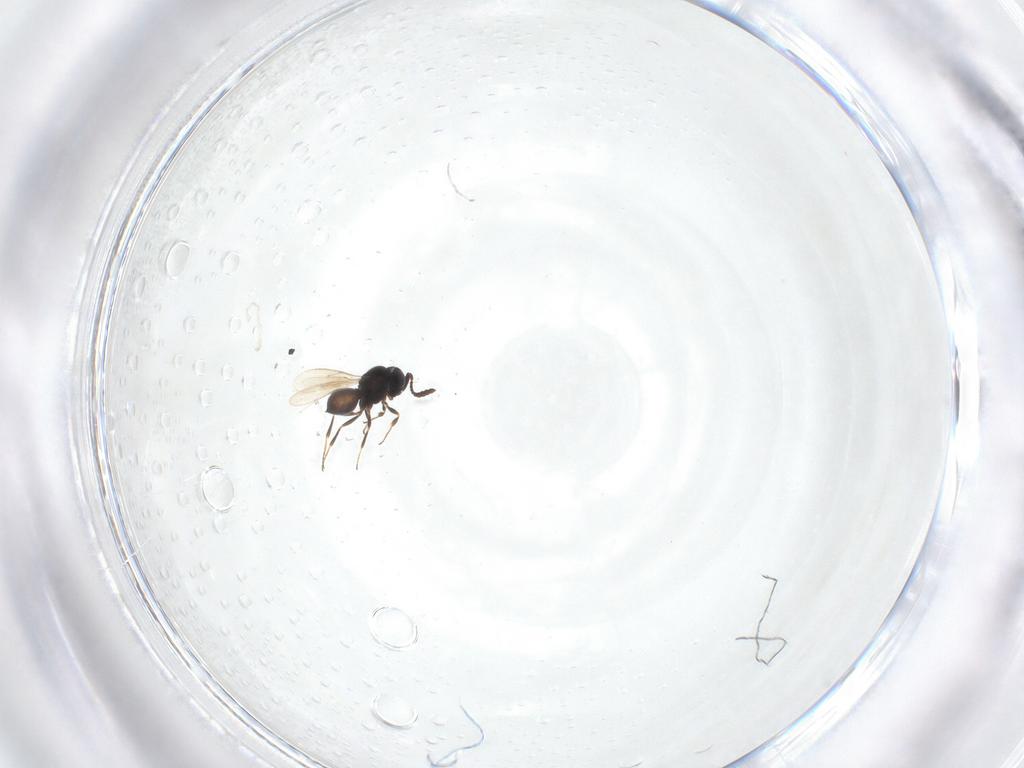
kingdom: Animalia
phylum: Arthropoda
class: Insecta
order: Hymenoptera
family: Scelionidae
